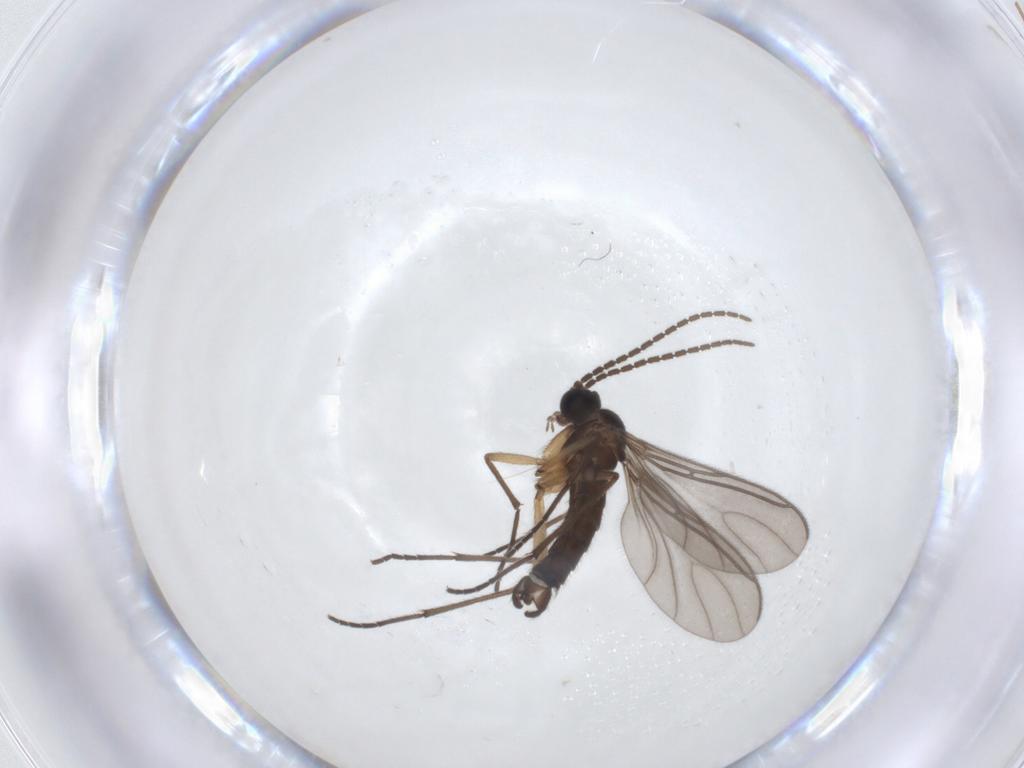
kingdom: Animalia
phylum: Arthropoda
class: Insecta
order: Diptera
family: Sciaridae
